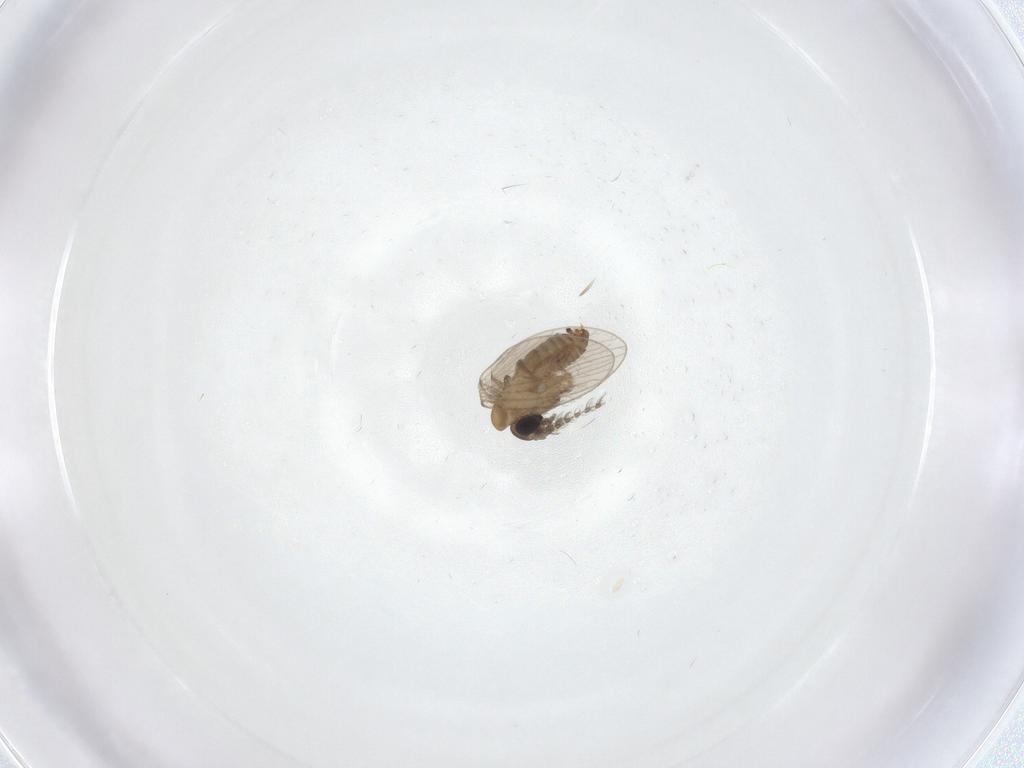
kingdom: Animalia
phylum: Arthropoda
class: Insecta
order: Diptera
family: Psychodidae
